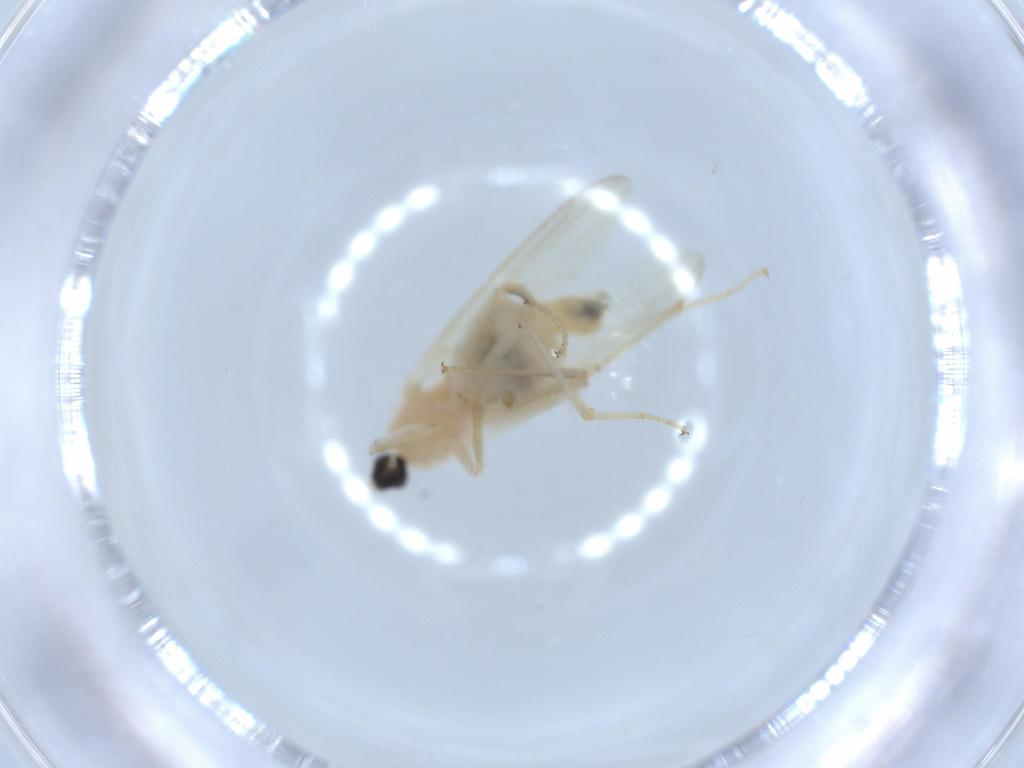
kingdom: Animalia
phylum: Arthropoda
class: Insecta
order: Diptera
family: Hybotidae
